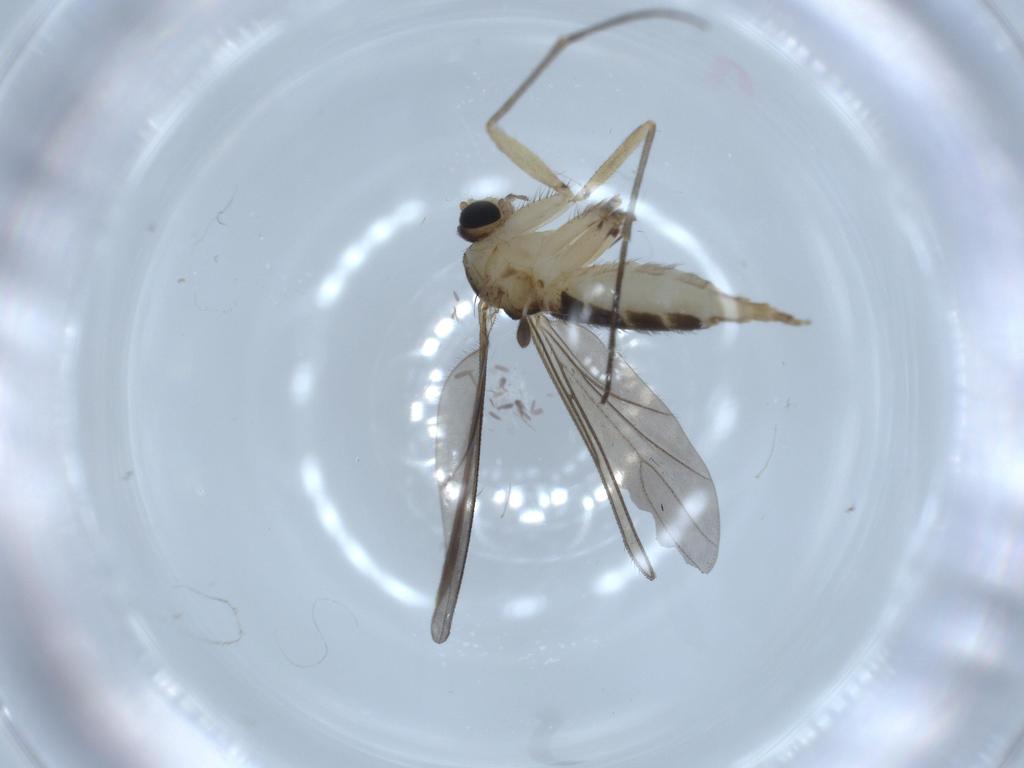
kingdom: Animalia
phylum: Arthropoda
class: Insecta
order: Diptera
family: Sciaridae
